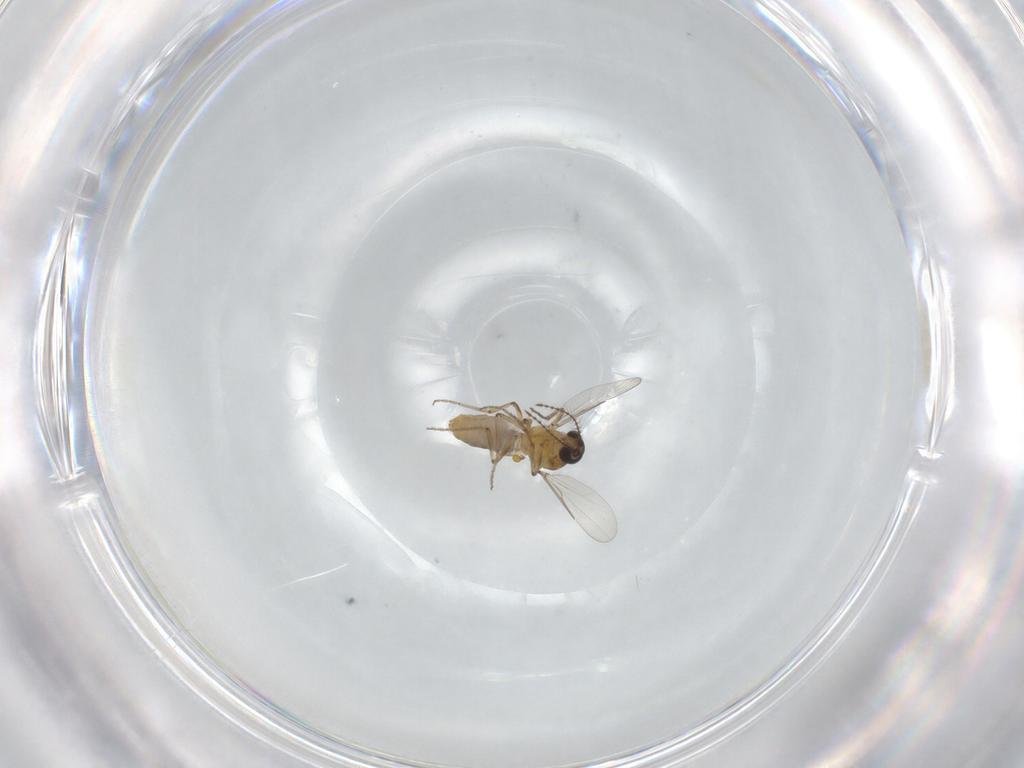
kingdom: Animalia
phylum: Arthropoda
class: Insecta
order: Diptera
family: Ceratopogonidae
